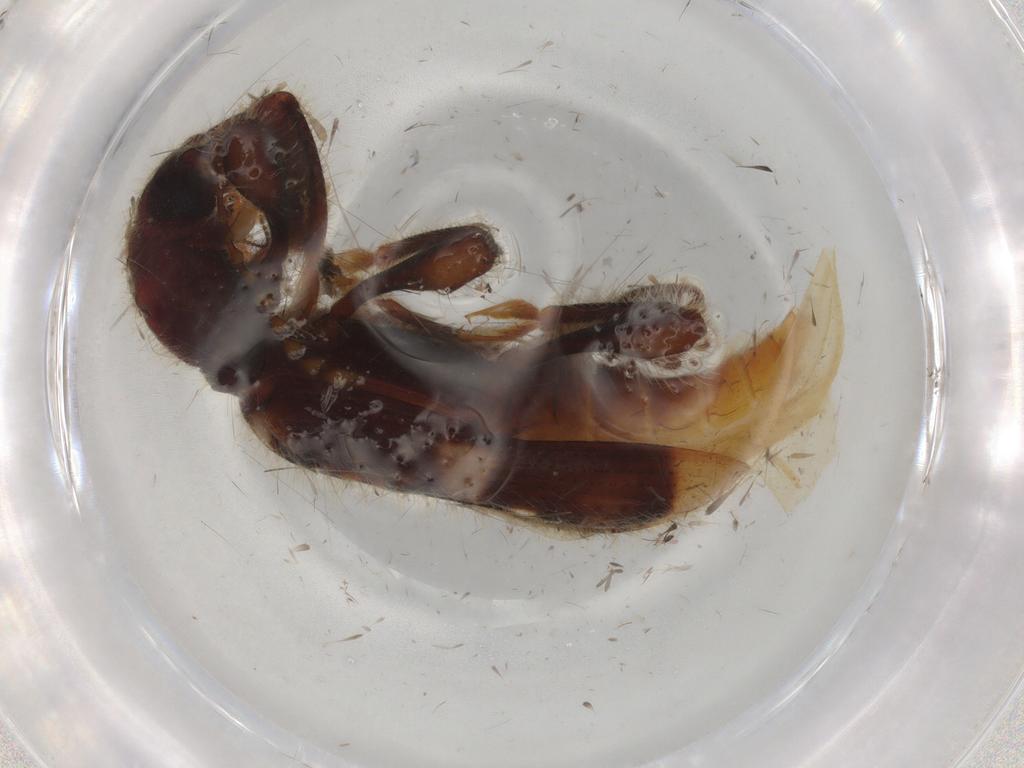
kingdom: Animalia
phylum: Arthropoda
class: Insecta
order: Coleoptera
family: Cleridae
